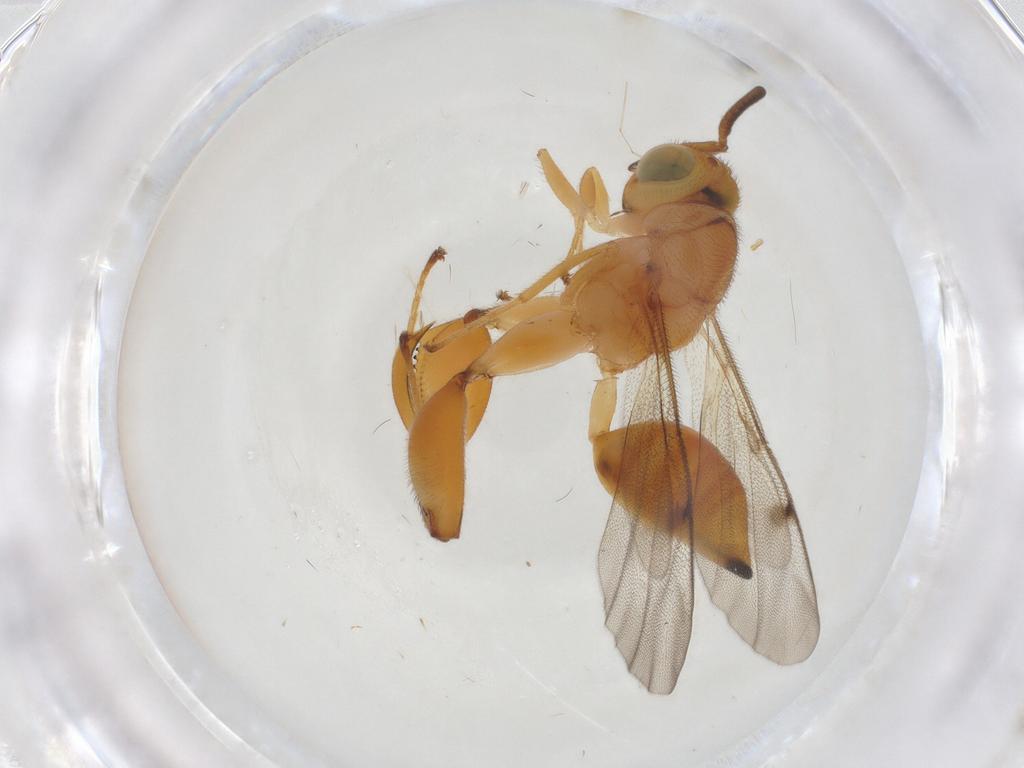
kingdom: Animalia
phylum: Arthropoda
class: Insecta
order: Hymenoptera
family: Chalcididae
